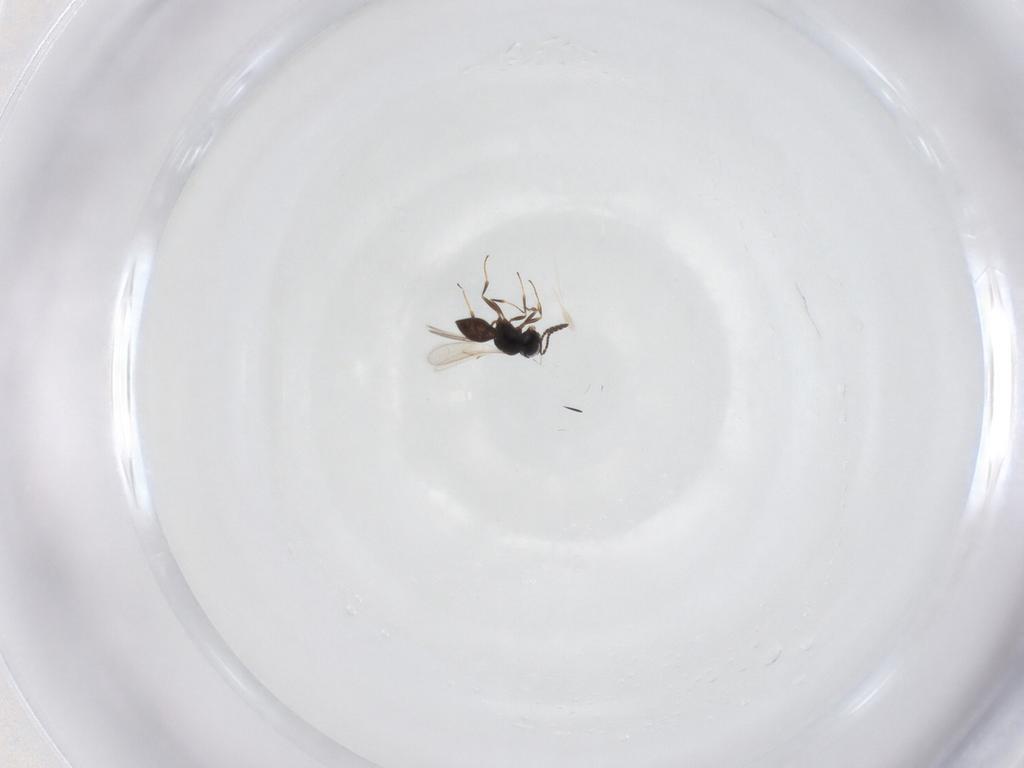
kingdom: Animalia
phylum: Arthropoda
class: Insecta
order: Hymenoptera
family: Scelionidae
